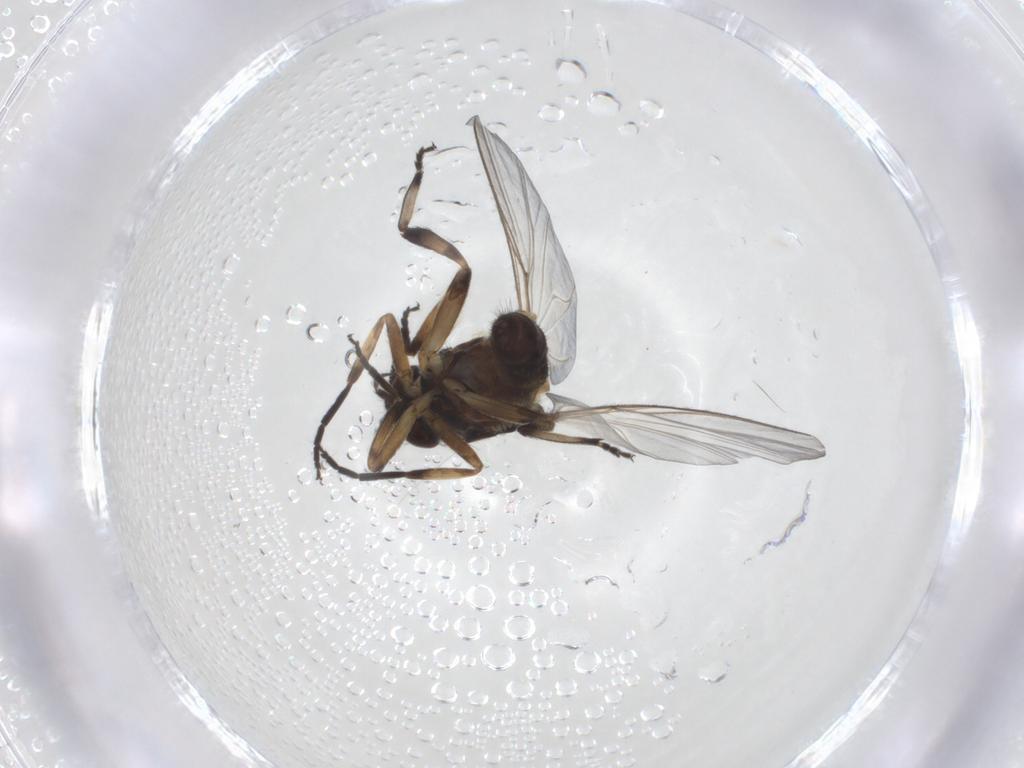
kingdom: Animalia
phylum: Arthropoda
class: Insecta
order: Diptera
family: Simuliidae
